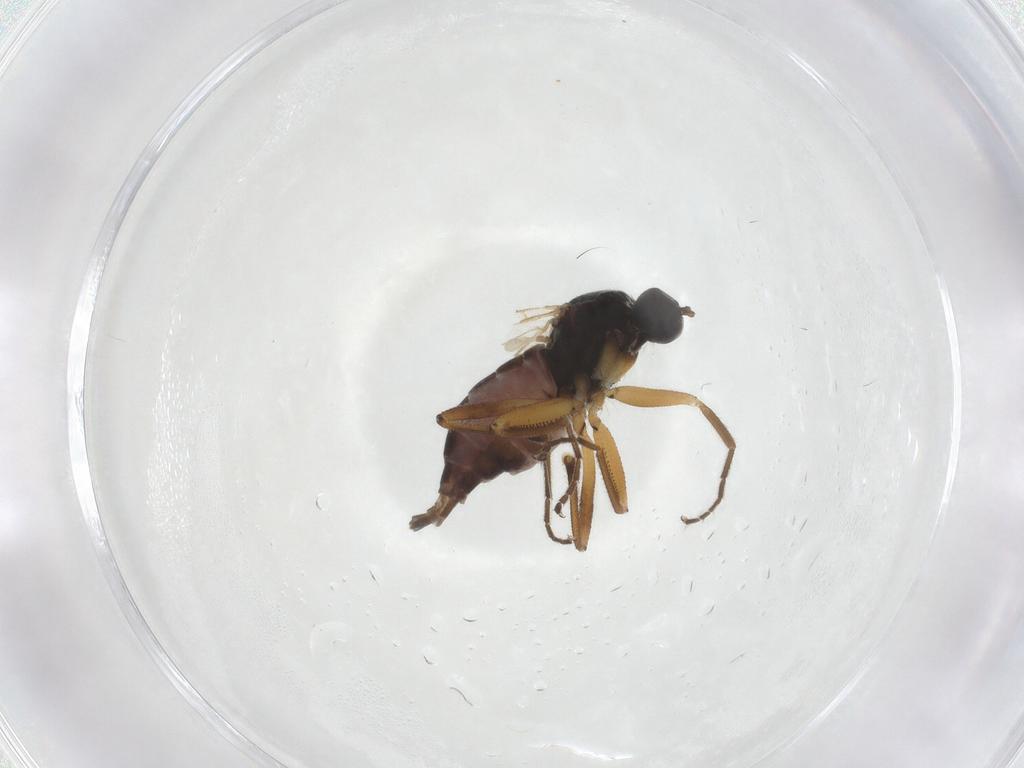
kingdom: Animalia
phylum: Arthropoda
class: Insecta
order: Diptera
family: Hybotidae
